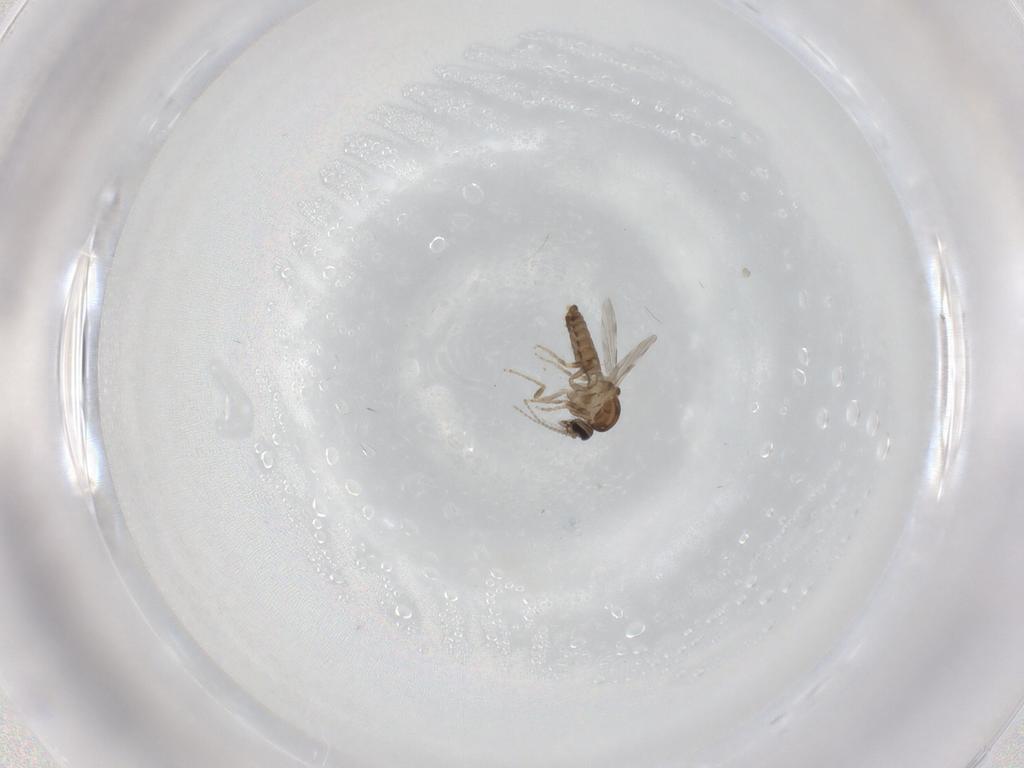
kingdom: Animalia
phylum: Arthropoda
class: Insecta
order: Diptera
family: Ceratopogonidae
